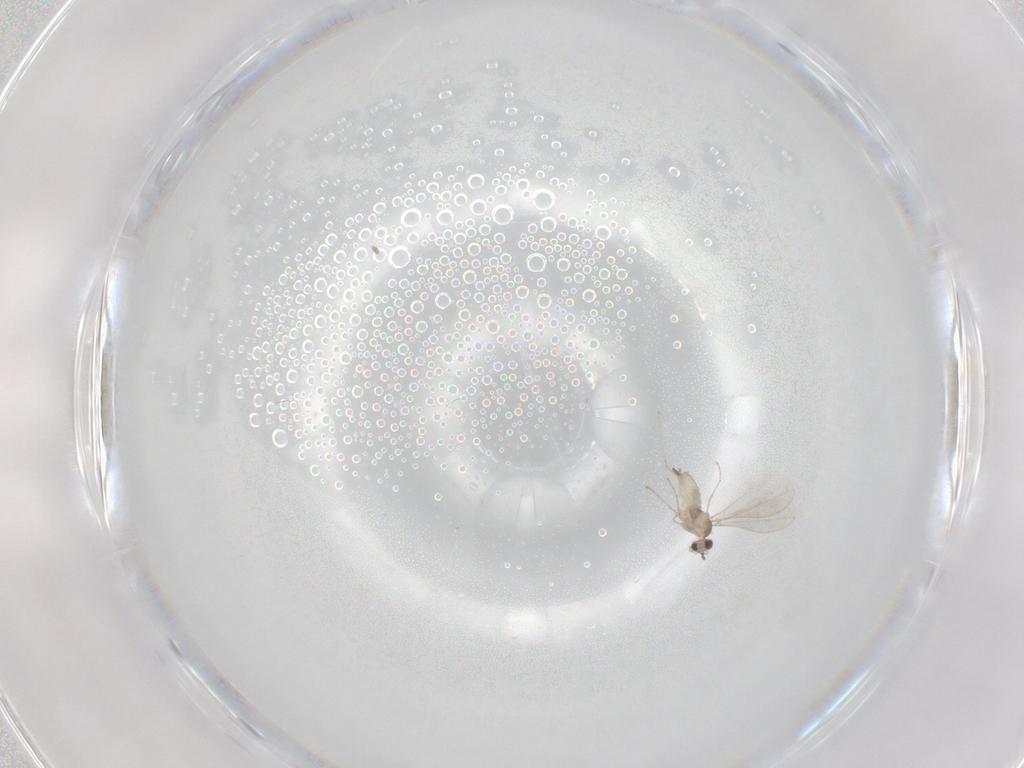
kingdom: Animalia
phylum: Arthropoda
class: Insecta
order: Diptera
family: Cecidomyiidae
